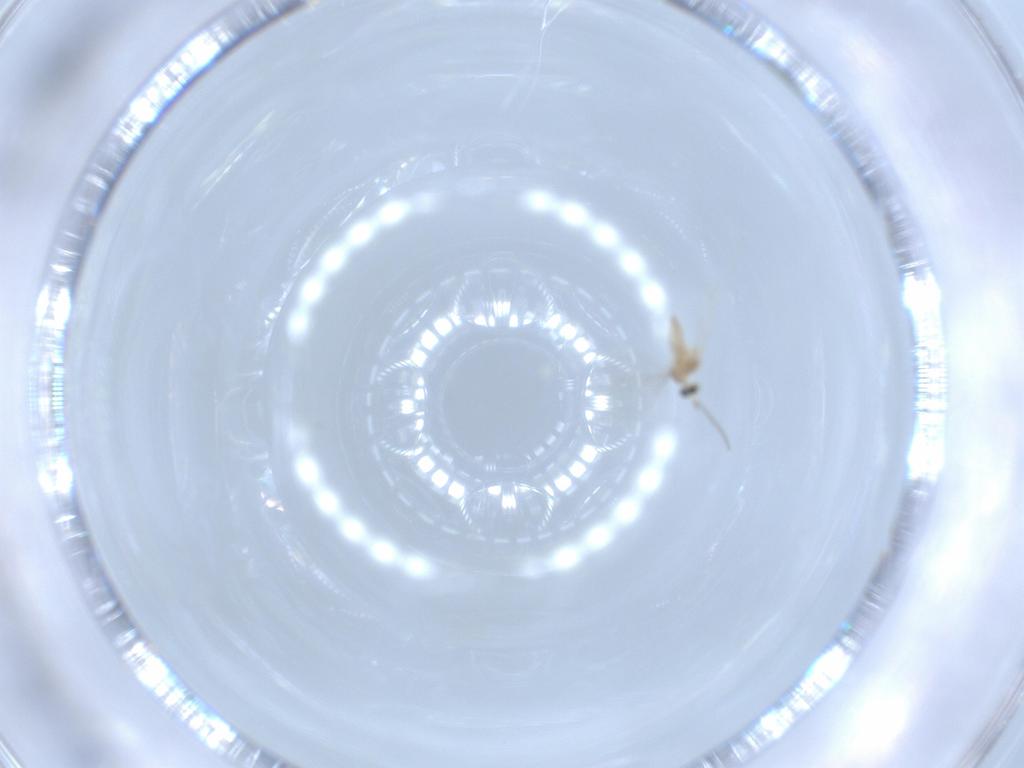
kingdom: Animalia
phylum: Arthropoda
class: Insecta
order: Diptera
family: Cecidomyiidae
